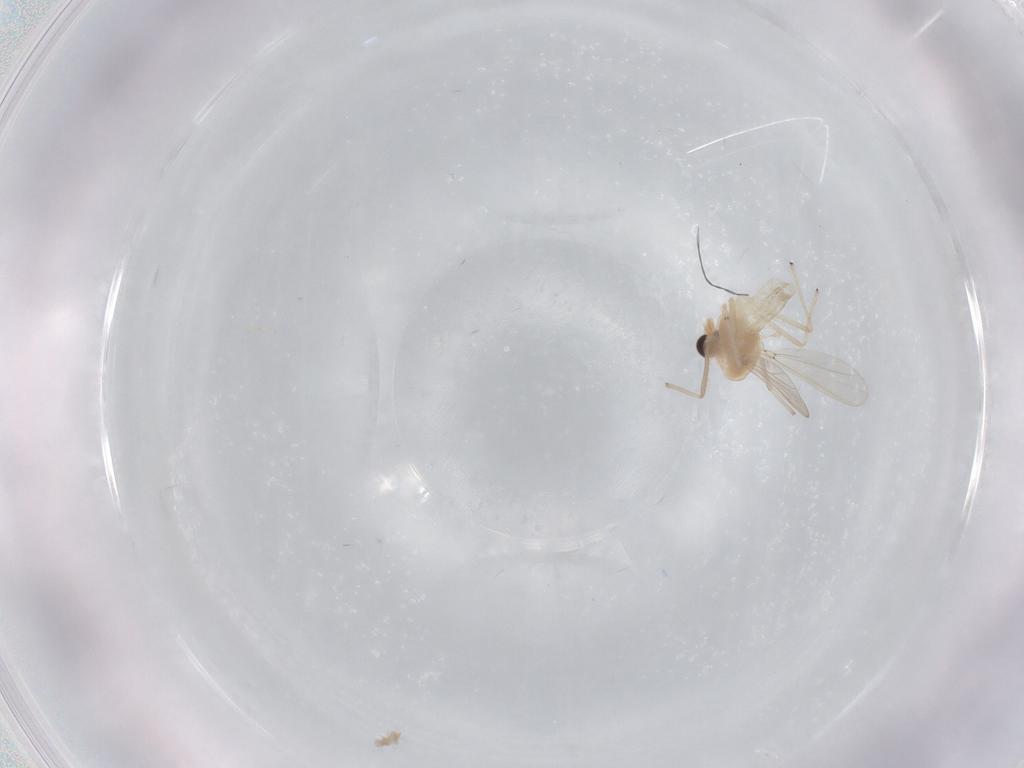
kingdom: Animalia
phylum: Arthropoda
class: Insecta
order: Diptera
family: Chironomidae
